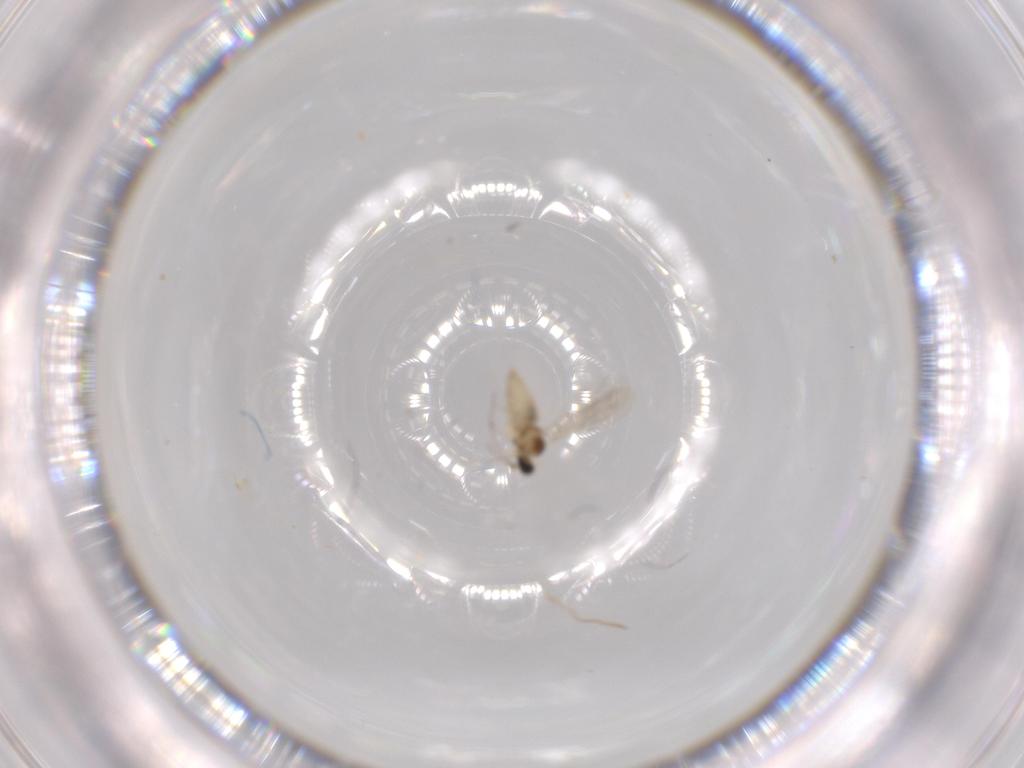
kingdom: Animalia
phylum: Arthropoda
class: Insecta
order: Diptera
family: Cecidomyiidae
